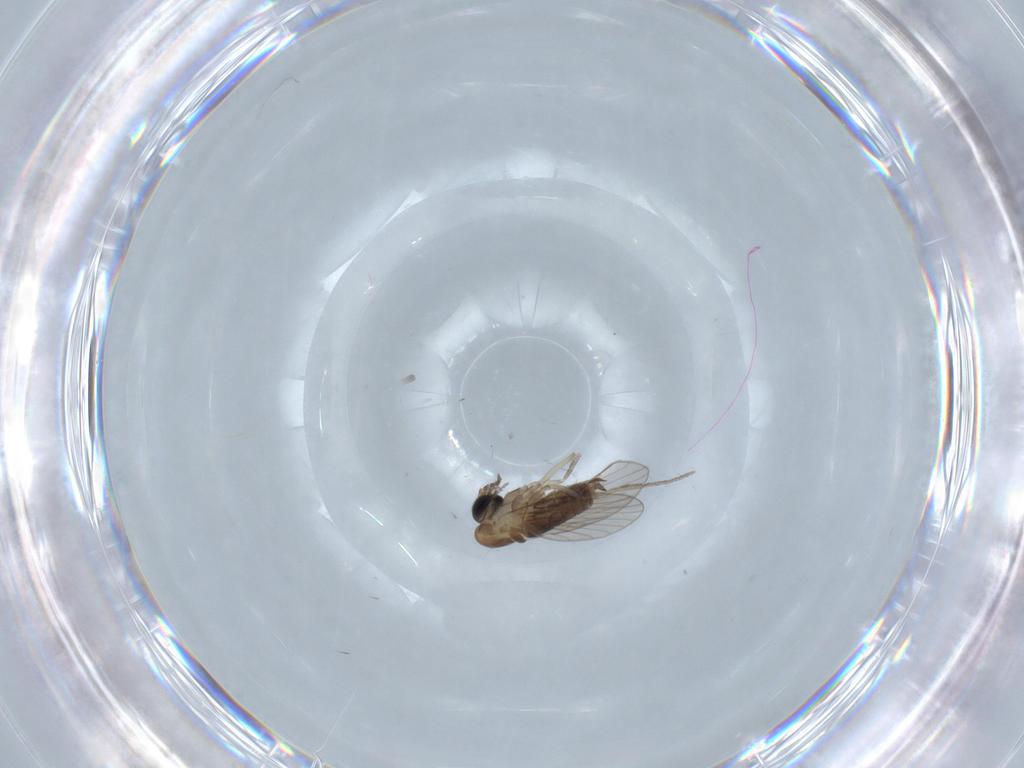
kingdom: Animalia
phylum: Arthropoda
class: Insecta
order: Diptera
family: Psychodidae
